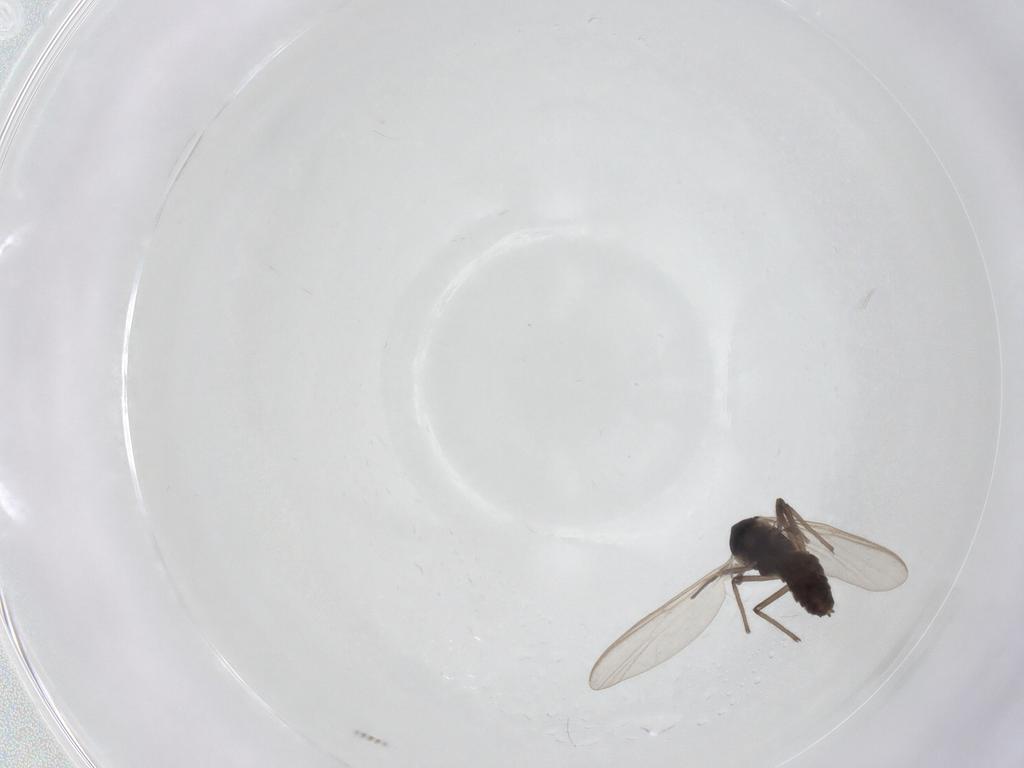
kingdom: Animalia
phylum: Arthropoda
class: Insecta
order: Diptera
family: Chironomidae
